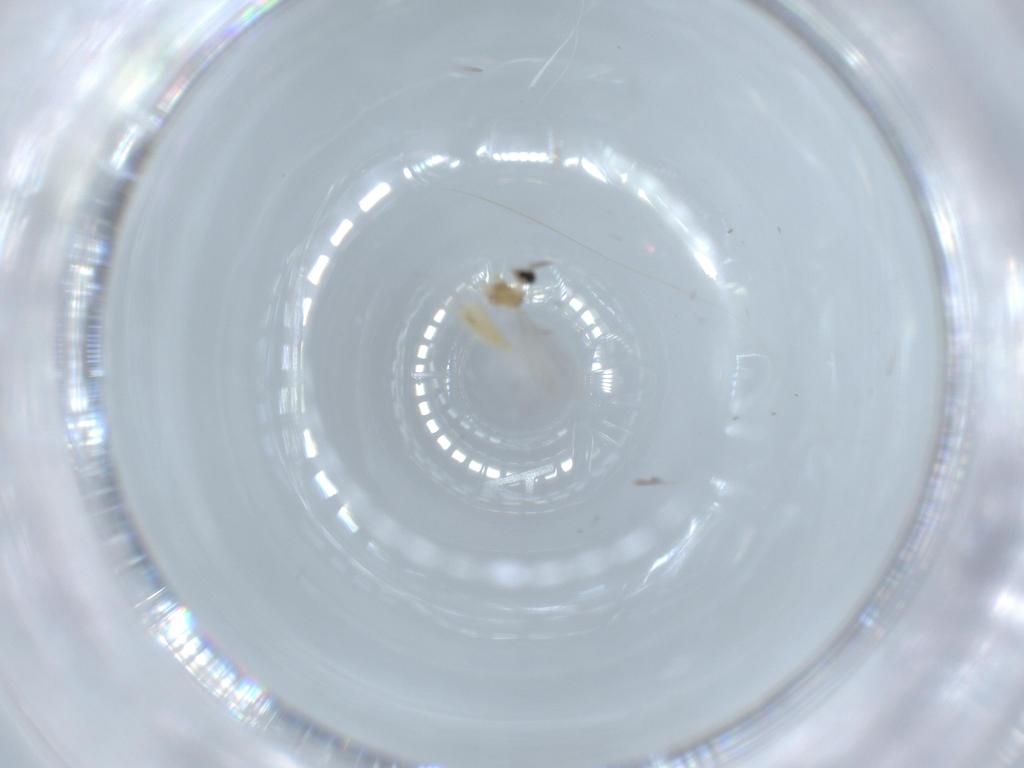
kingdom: Animalia
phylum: Arthropoda
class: Insecta
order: Diptera
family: Cecidomyiidae
